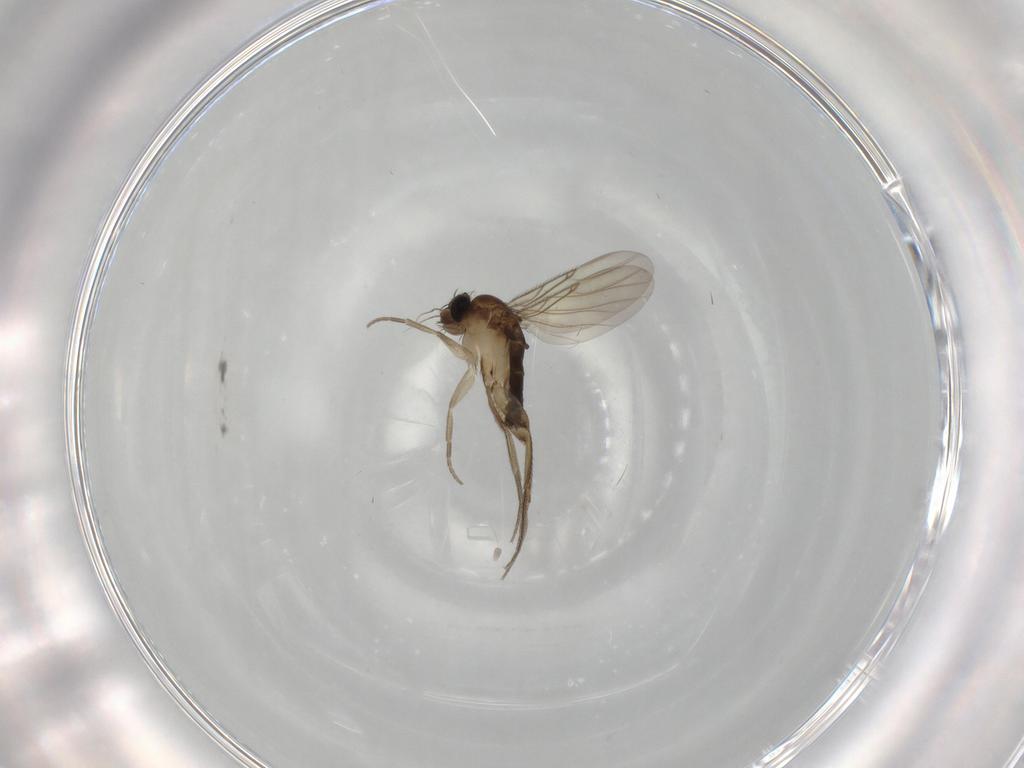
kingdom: Animalia
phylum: Arthropoda
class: Insecta
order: Diptera
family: Phoridae
